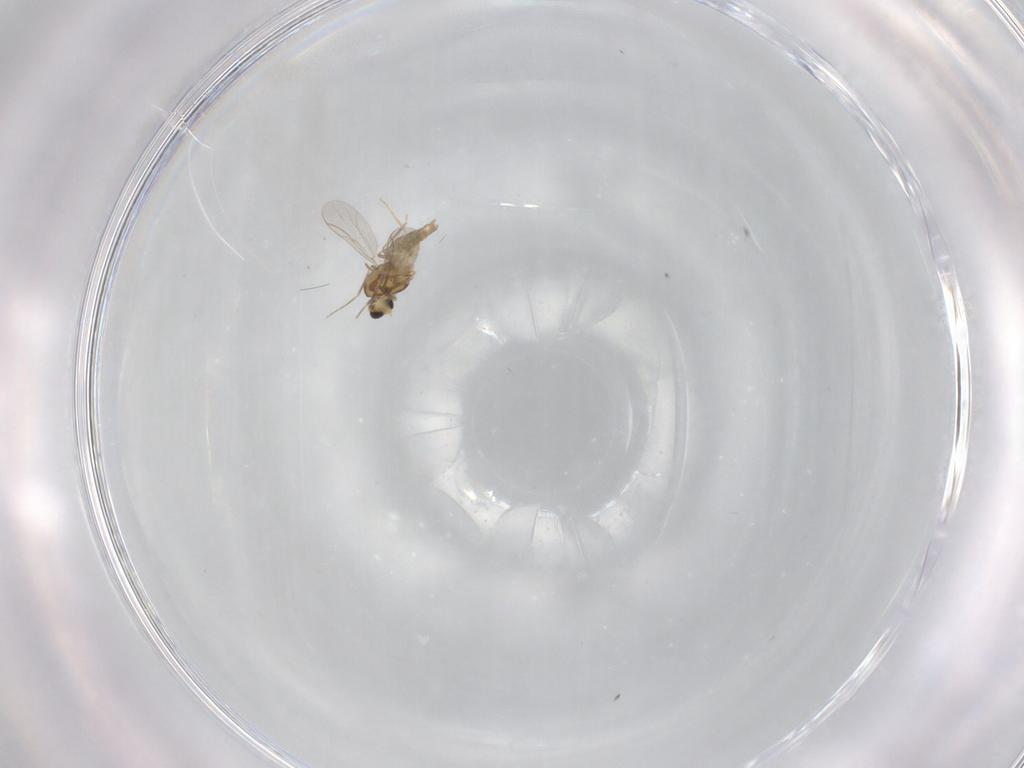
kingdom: Animalia
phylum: Arthropoda
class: Insecta
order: Diptera
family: Chironomidae
